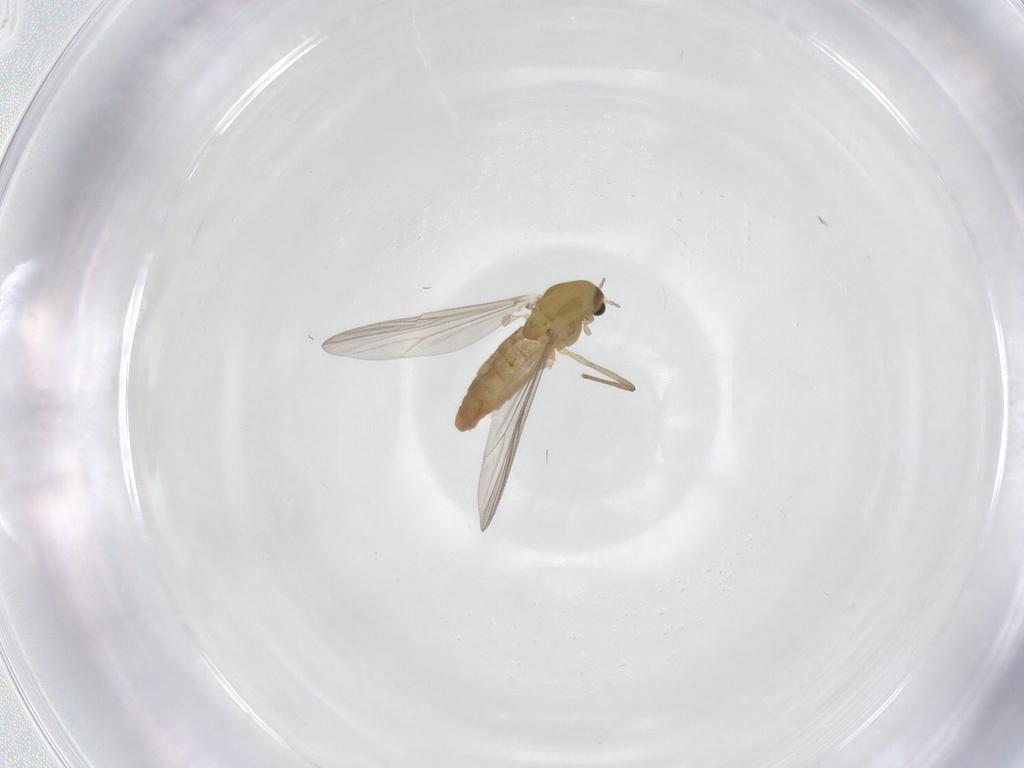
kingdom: Animalia
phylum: Arthropoda
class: Insecta
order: Diptera
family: Chironomidae
